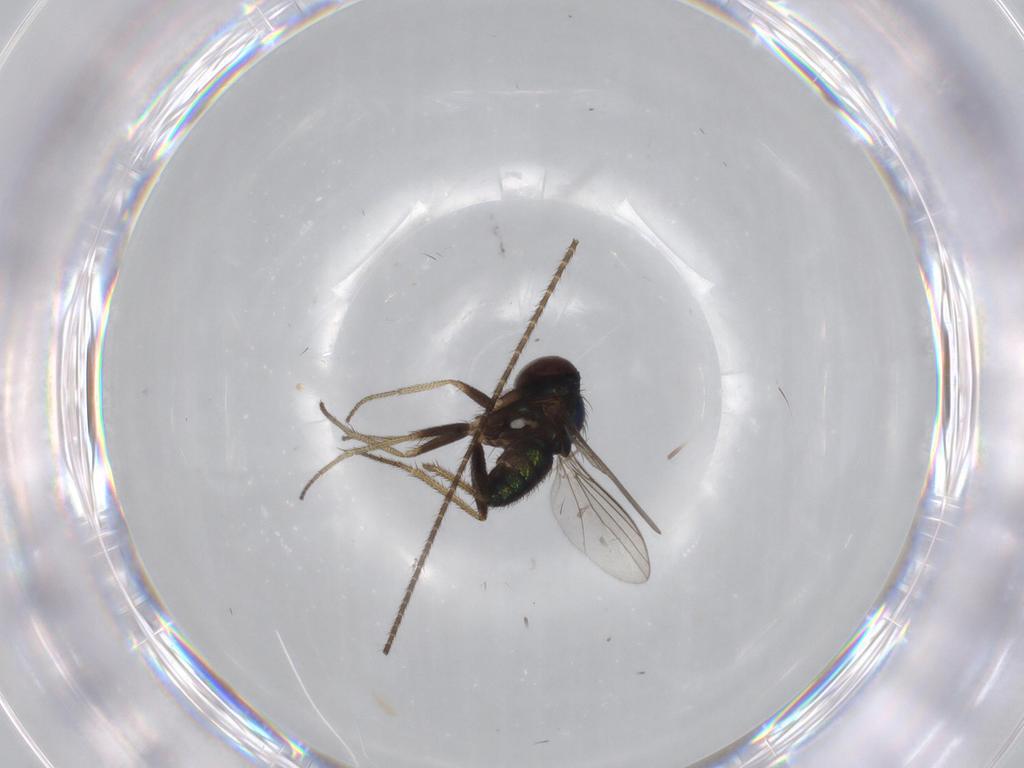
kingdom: Animalia
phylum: Arthropoda
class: Insecta
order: Diptera
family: Dolichopodidae
